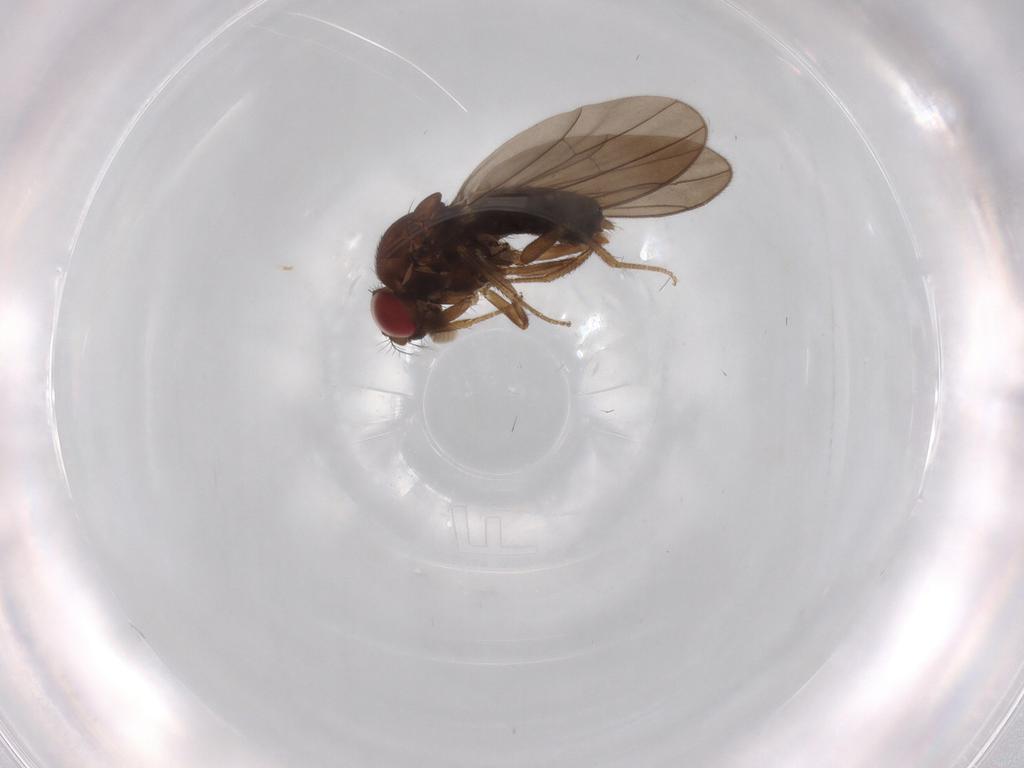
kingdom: Animalia
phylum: Arthropoda
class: Insecta
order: Diptera
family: Drosophilidae
